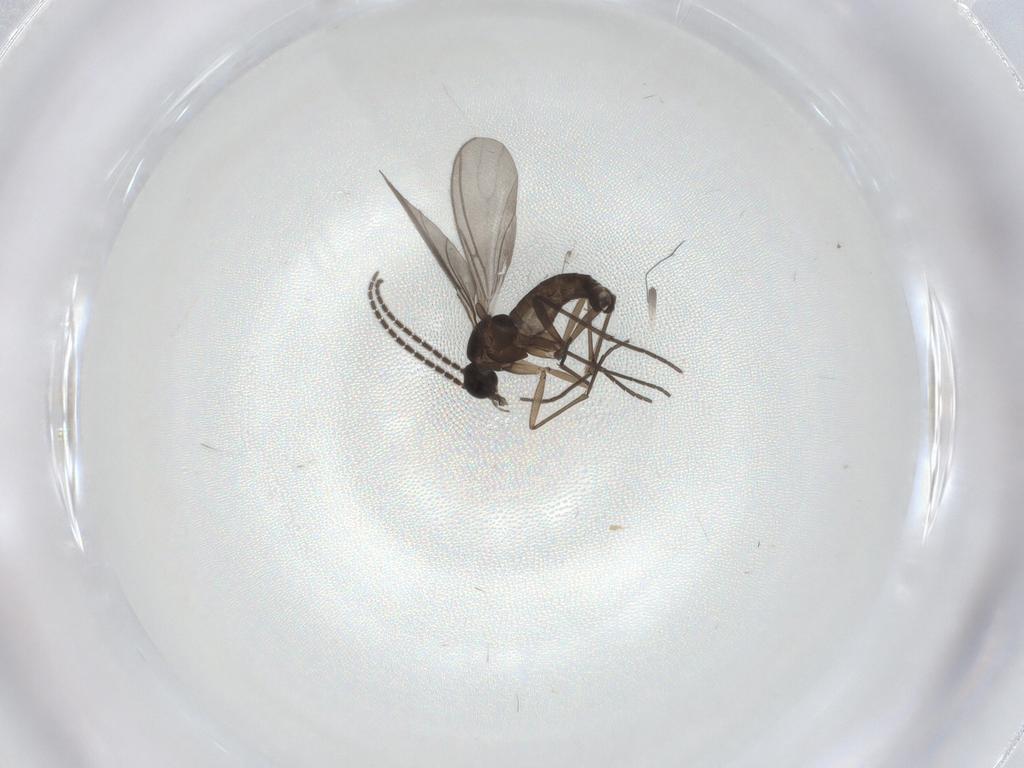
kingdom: Animalia
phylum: Arthropoda
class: Insecta
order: Diptera
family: Sciaridae
